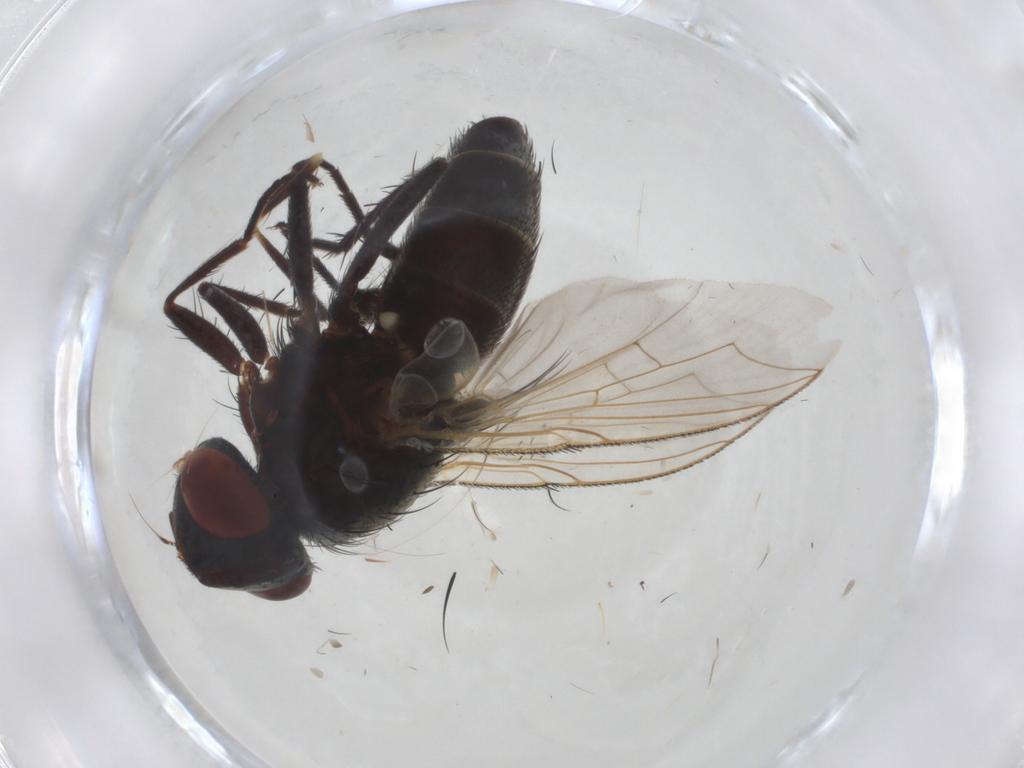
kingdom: Animalia
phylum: Arthropoda
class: Insecta
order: Diptera
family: Sarcophagidae
